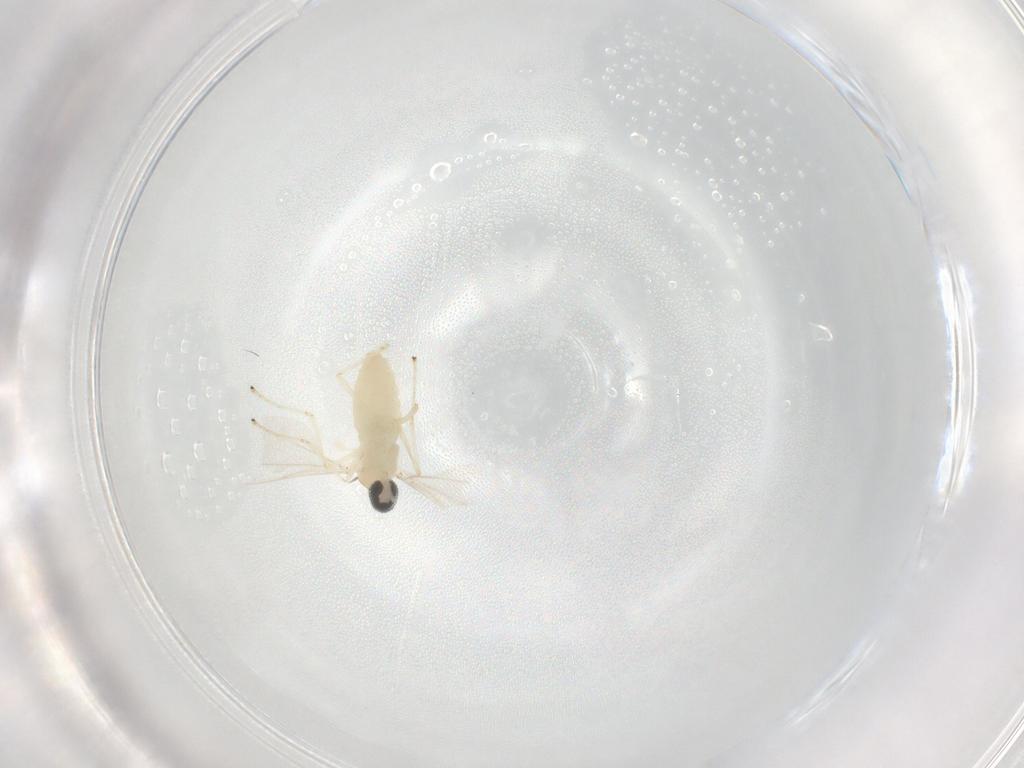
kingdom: Animalia
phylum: Arthropoda
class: Insecta
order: Diptera
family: Cecidomyiidae
